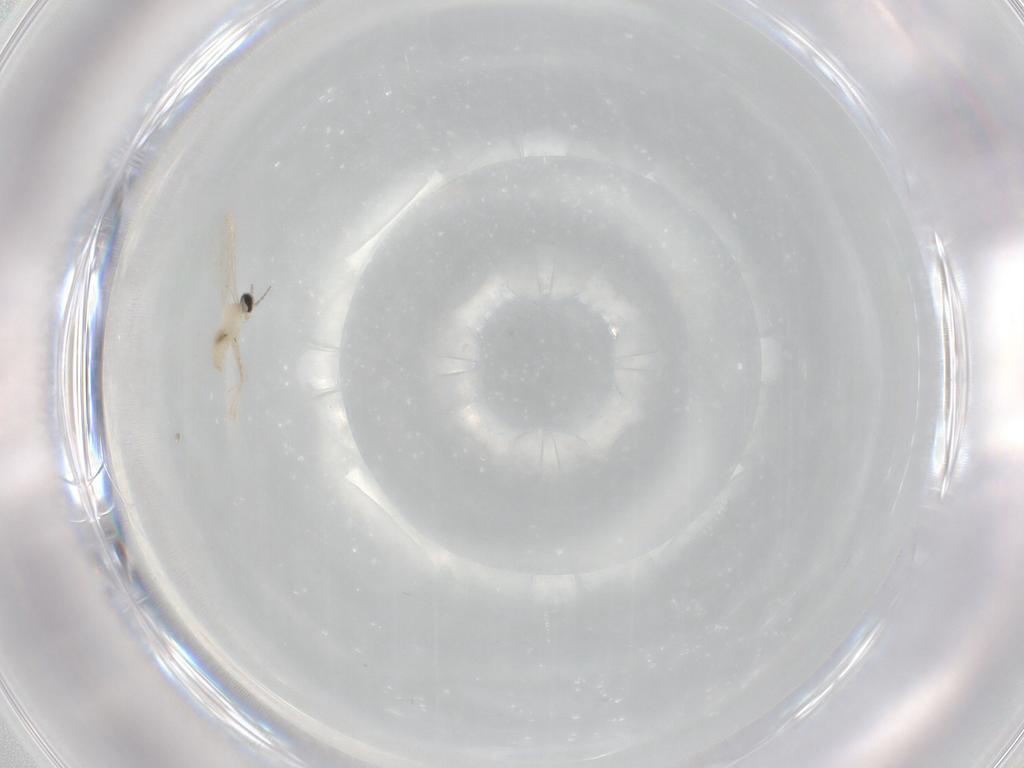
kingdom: Animalia
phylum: Arthropoda
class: Insecta
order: Diptera
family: Cecidomyiidae
